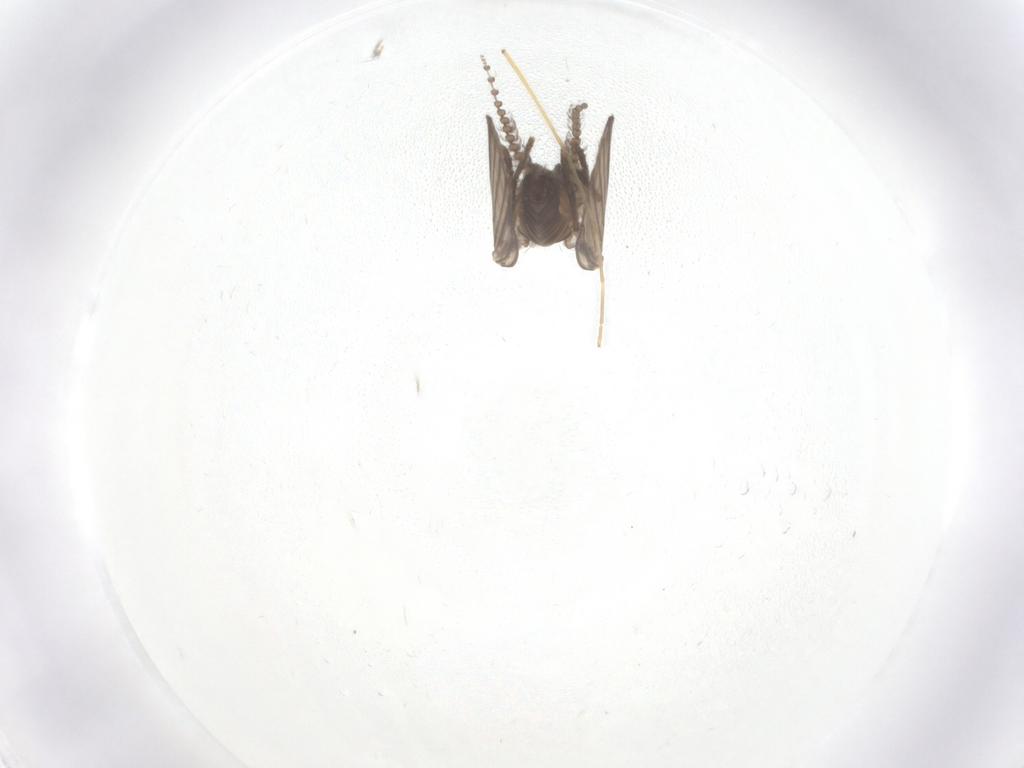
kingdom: Animalia
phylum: Arthropoda
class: Insecta
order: Diptera
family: Psychodidae
